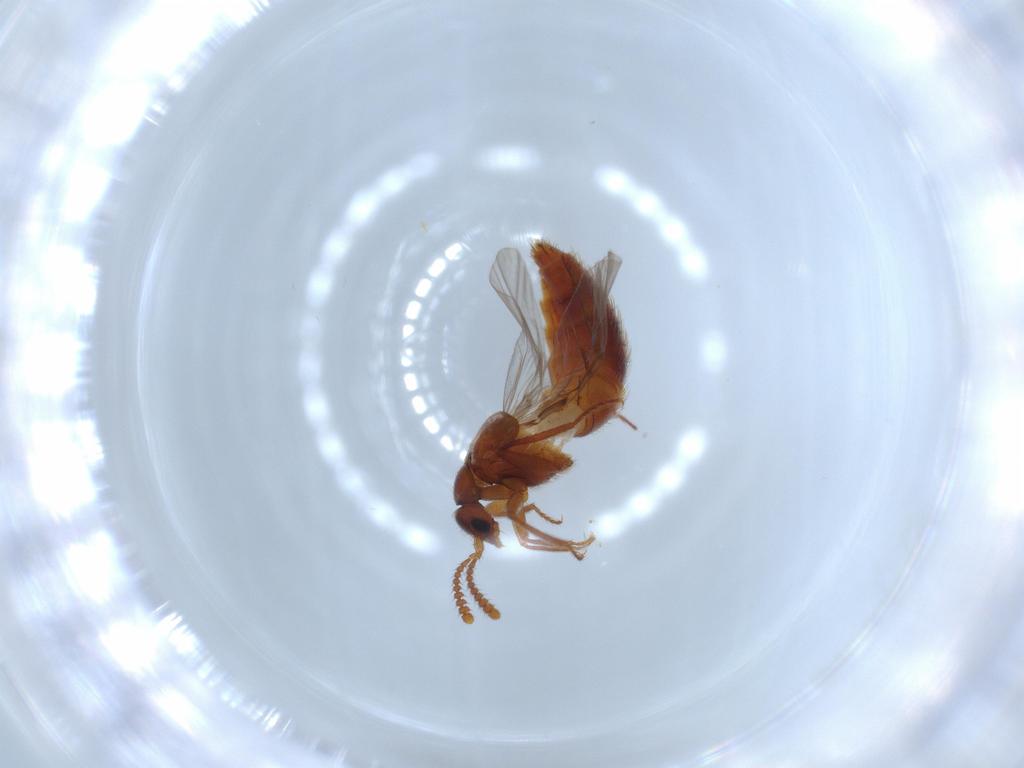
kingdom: Animalia
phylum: Arthropoda
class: Insecta
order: Coleoptera
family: Staphylinidae
